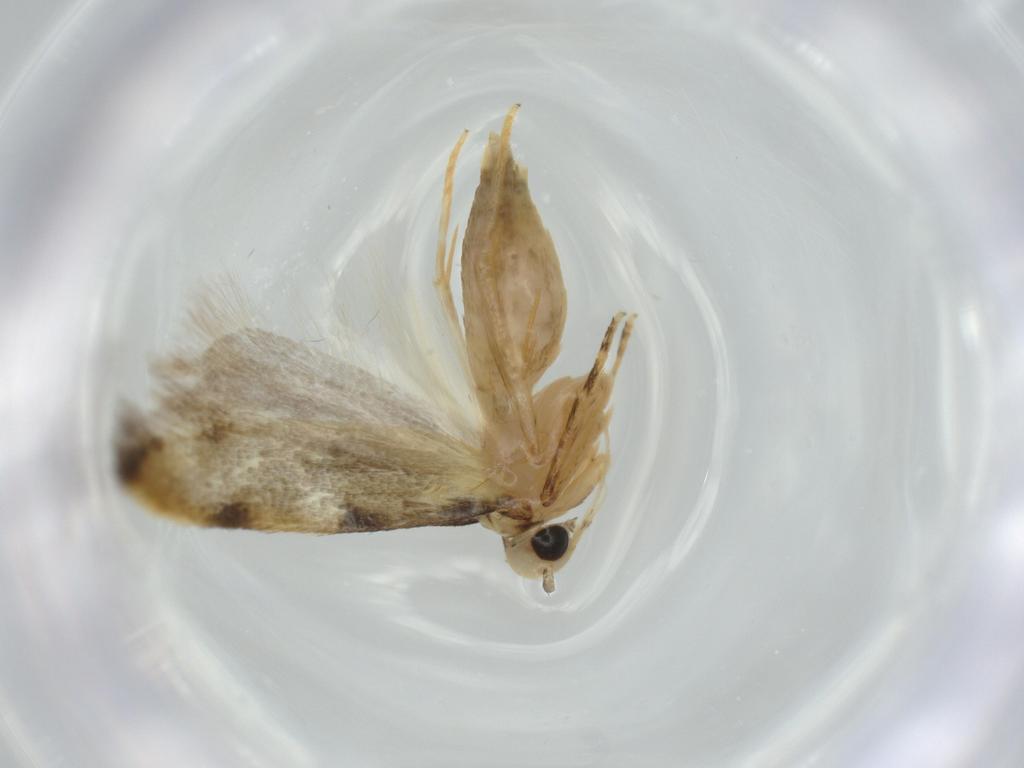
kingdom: Animalia
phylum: Arthropoda
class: Insecta
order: Lepidoptera
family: Autostichidae
